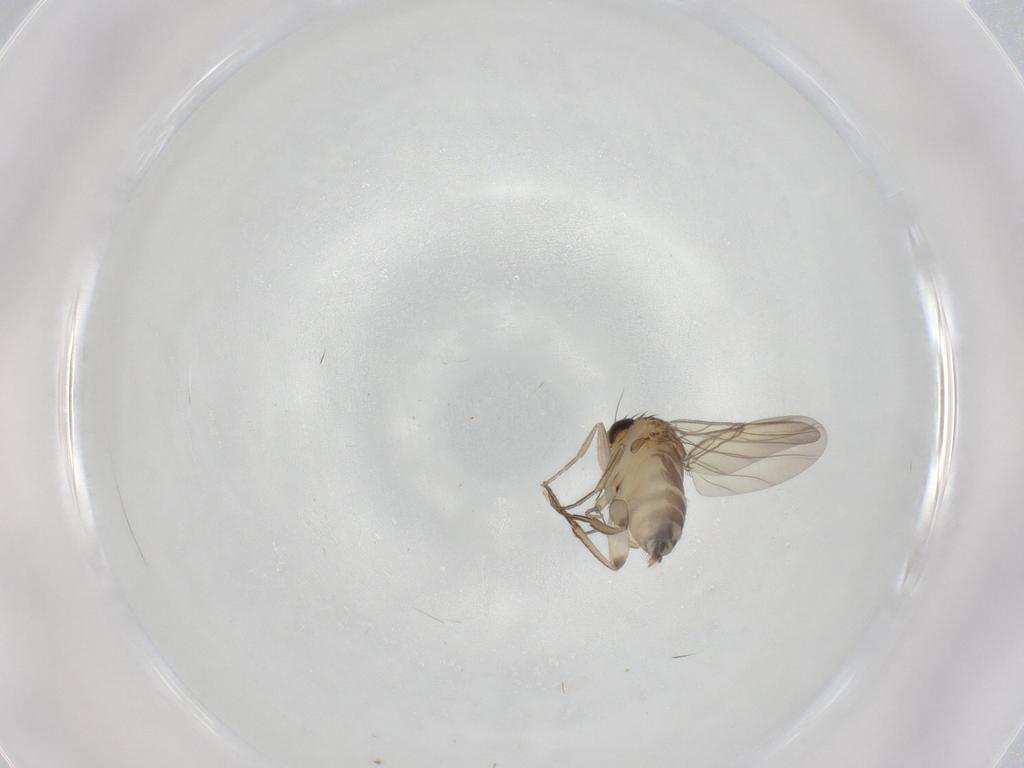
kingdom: Animalia
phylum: Arthropoda
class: Insecta
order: Diptera
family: Phoridae
